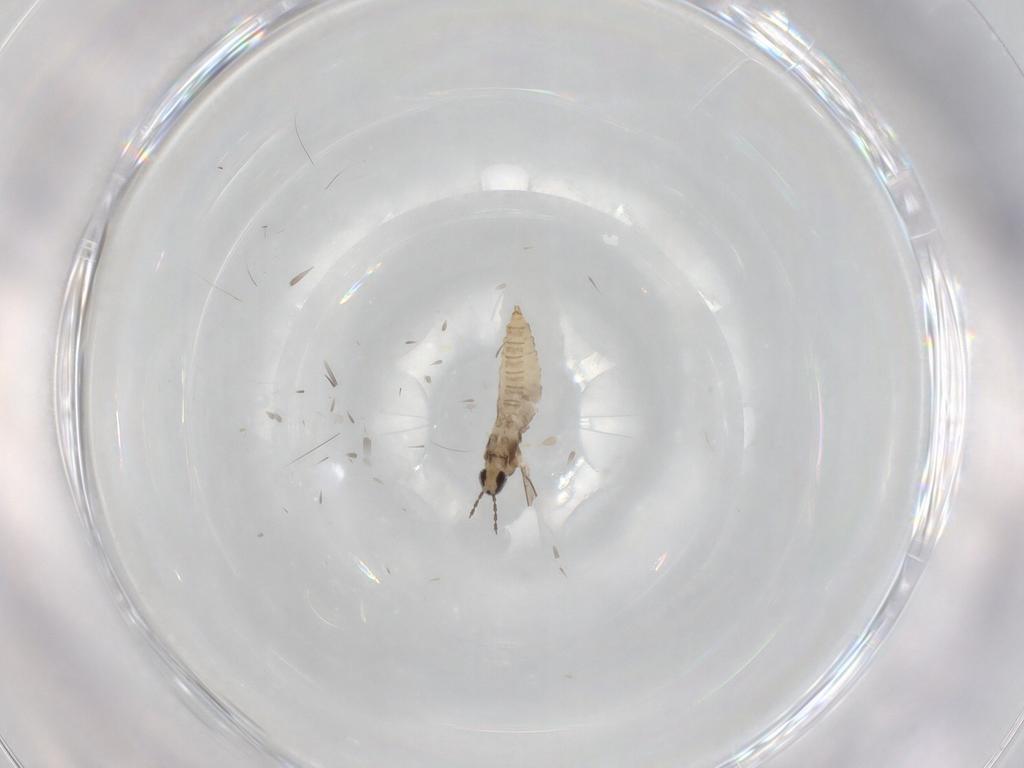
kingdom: Animalia
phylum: Arthropoda
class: Insecta
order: Diptera
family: Cecidomyiidae
